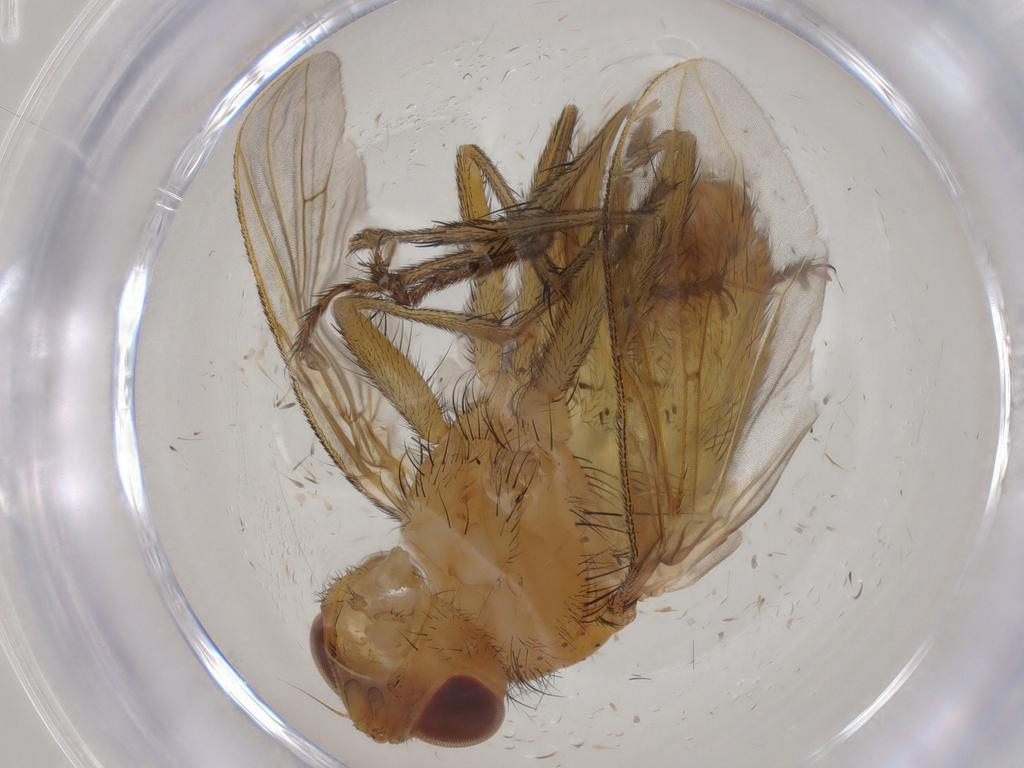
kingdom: Animalia
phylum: Arthropoda
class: Insecta
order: Diptera
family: Tachinidae
